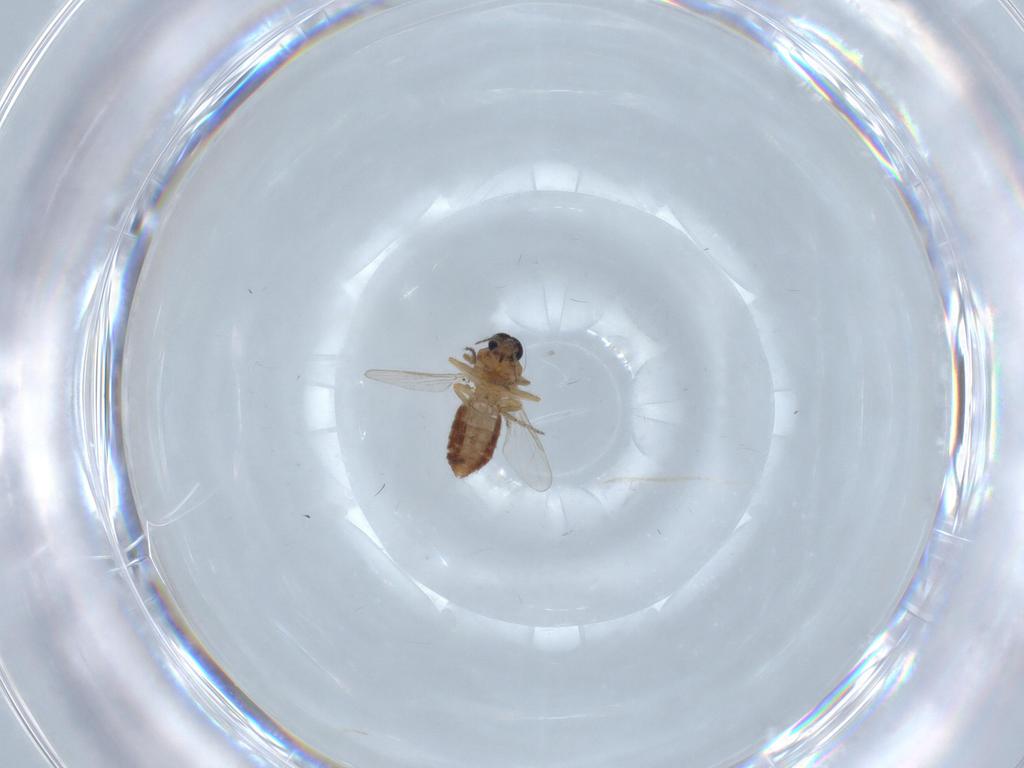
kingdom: Animalia
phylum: Arthropoda
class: Insecta
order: Diptera
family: Ceratopogonidae
